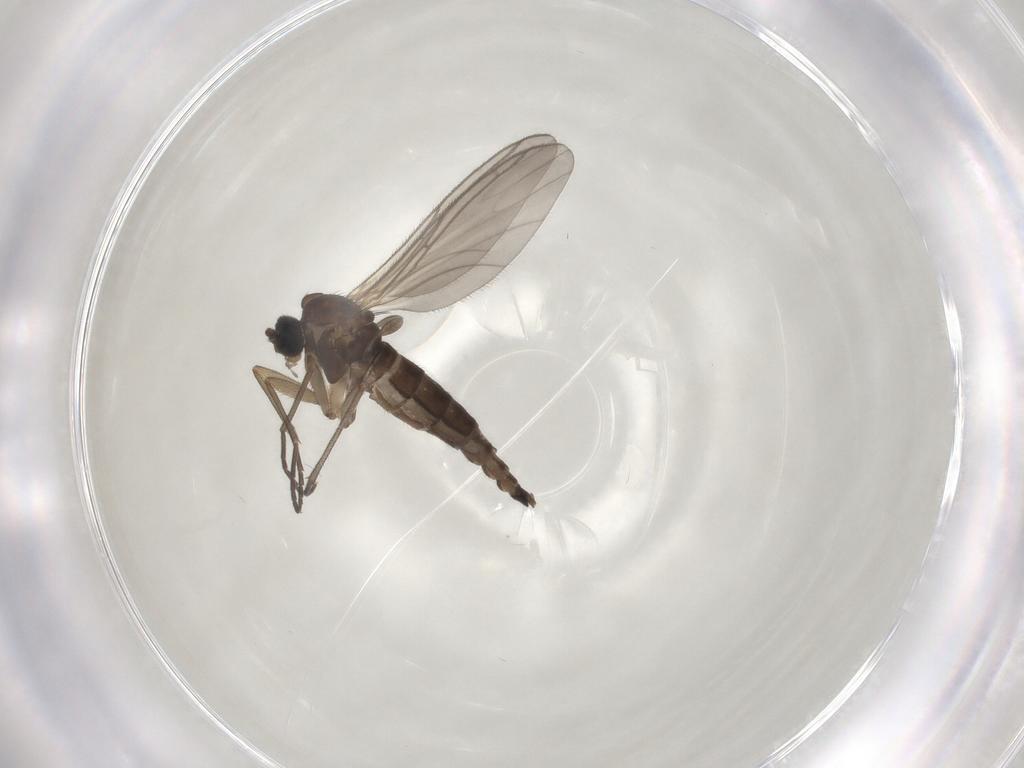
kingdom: Animalia
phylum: Arthropoda
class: Insecta
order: Diptera
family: Sciaridae
